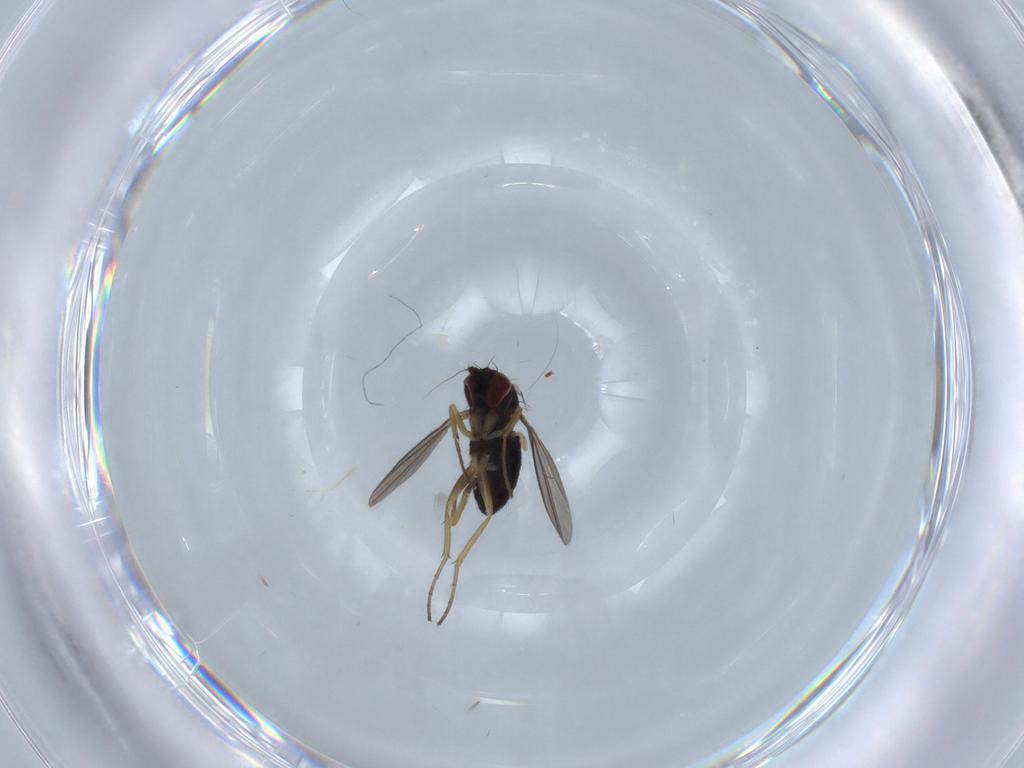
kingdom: Animalia
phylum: Arthropoda
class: Insecta
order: Diptera
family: Dolichopodidae
